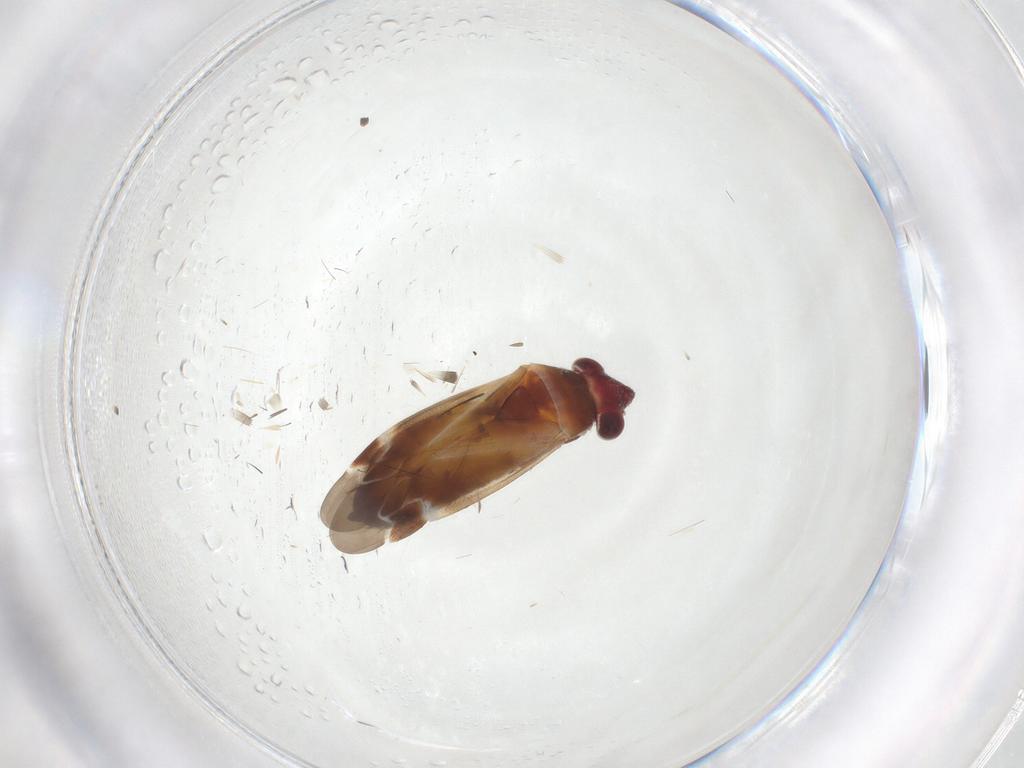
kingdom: Animalia
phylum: Arthropoda
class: Insecta
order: Hemiptera
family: Miridae
